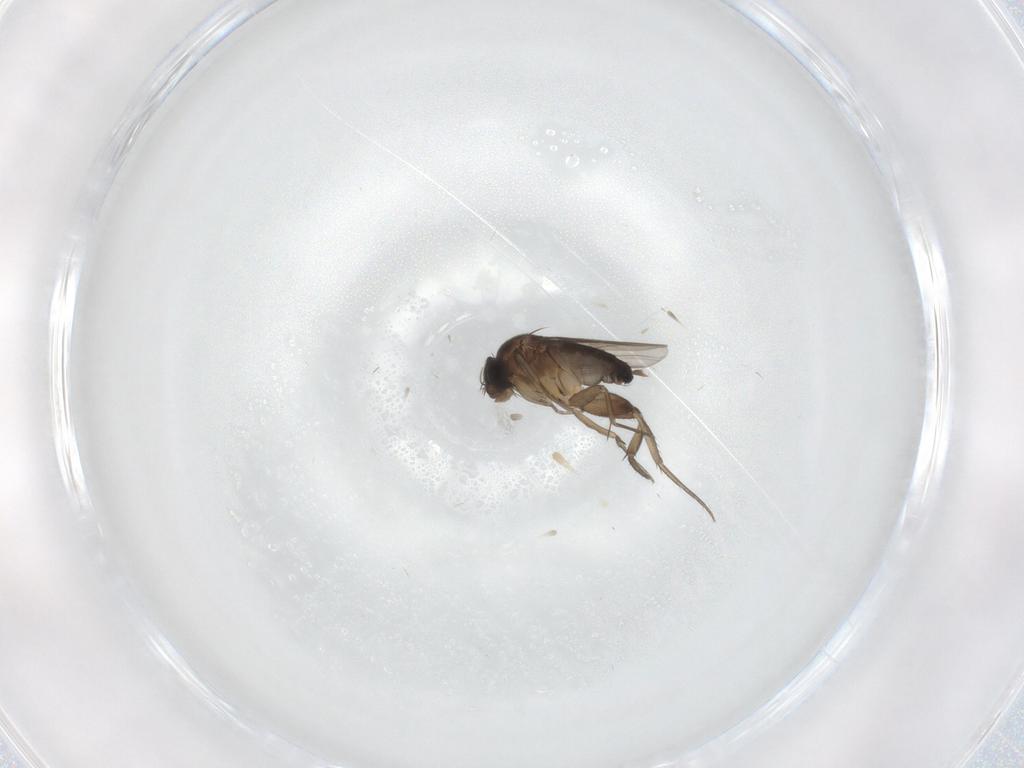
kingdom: Animalia
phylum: Arthropoda
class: Insecta
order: Diptera
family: Phoridae
